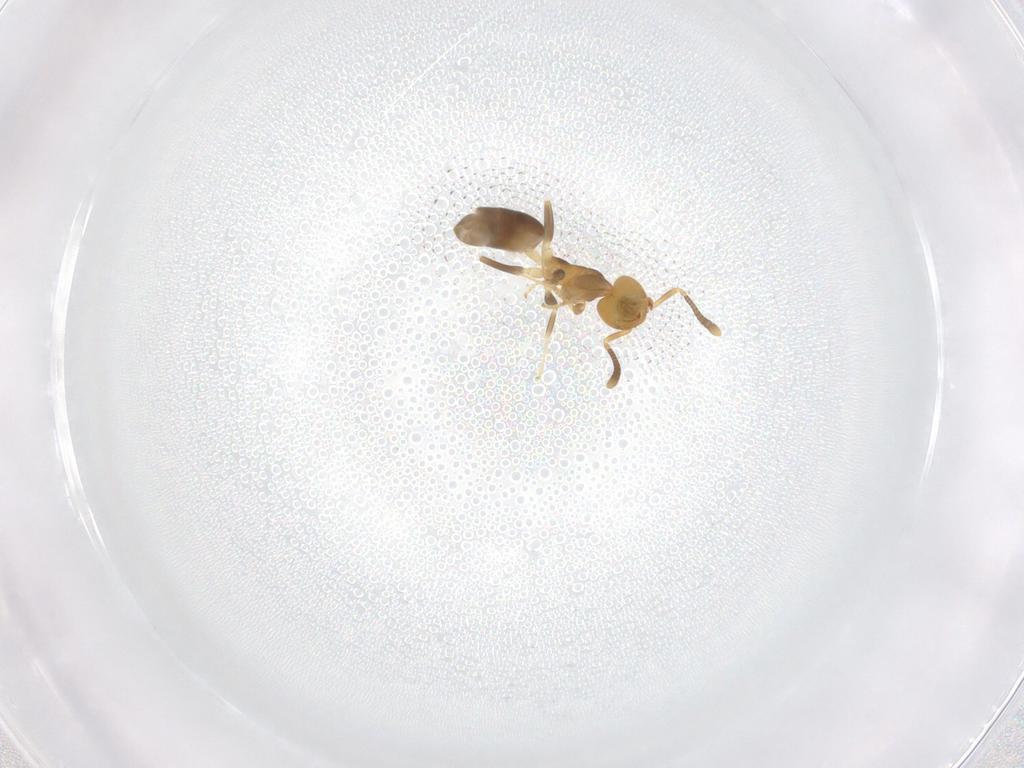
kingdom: Animalia
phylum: Arthropoda
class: Insecta
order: Hymenoptera
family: Formicidae
